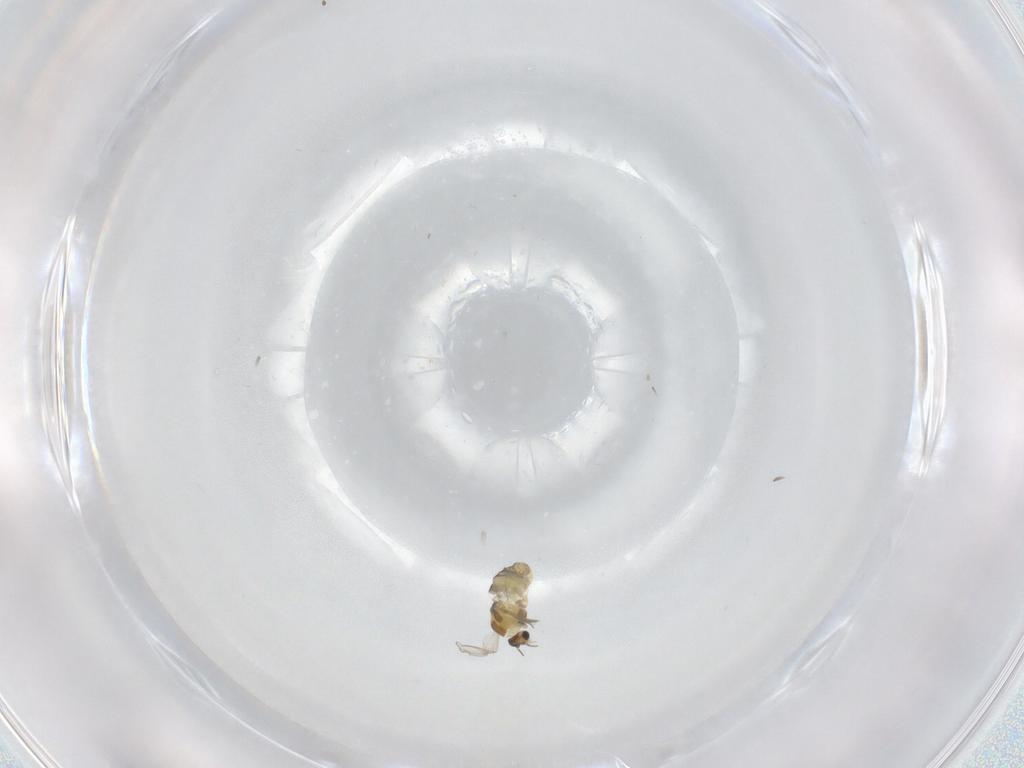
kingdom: Animalia
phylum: Arthropoda
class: Insecta
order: Diptera
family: Chironomidae
